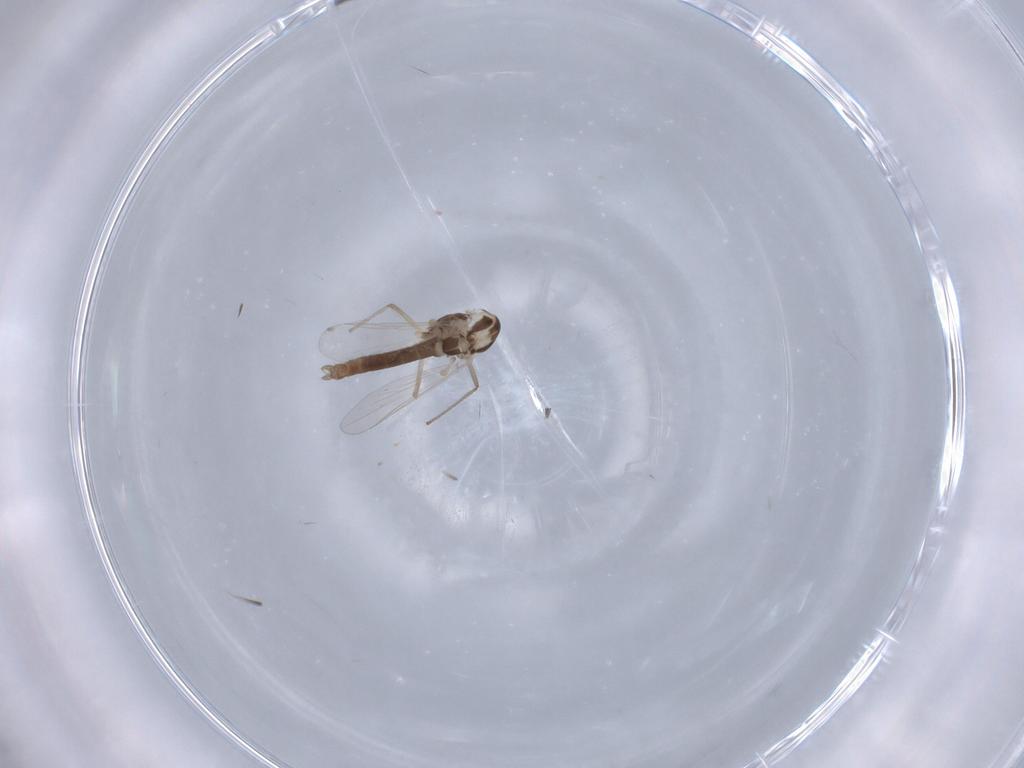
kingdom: Animalia
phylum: Arthropoda
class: Insecta
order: Diptera
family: Chironomidae
